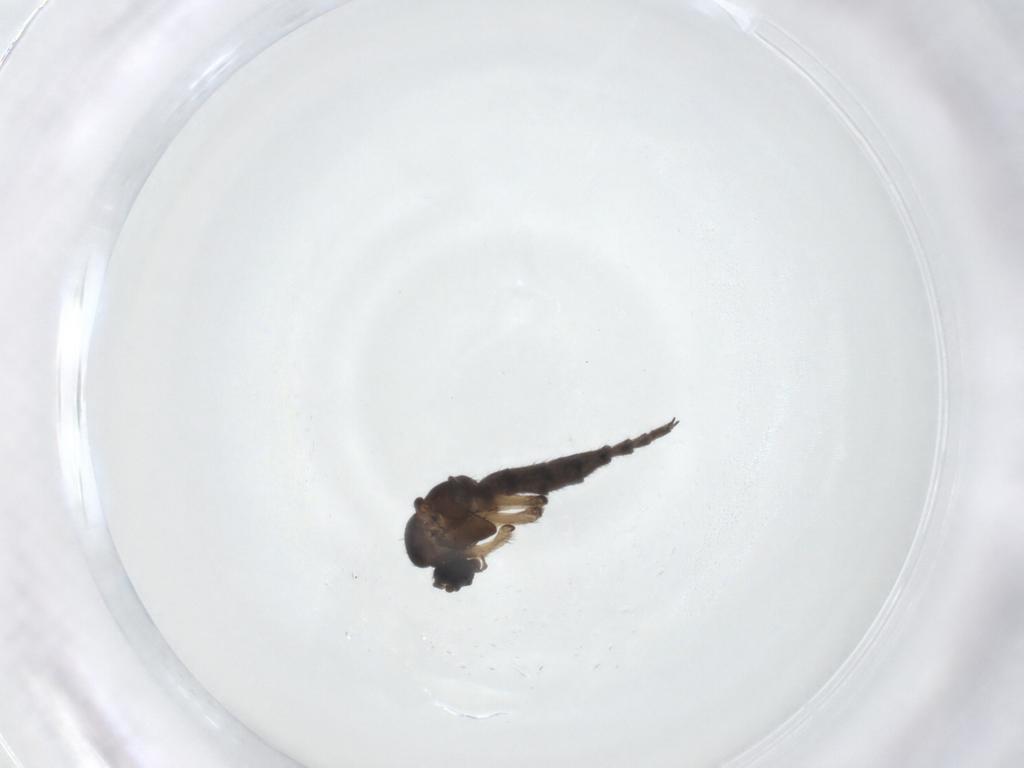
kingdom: Animalia
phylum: Arthropoda
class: Insecta
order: Diptera
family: Sciaridae
